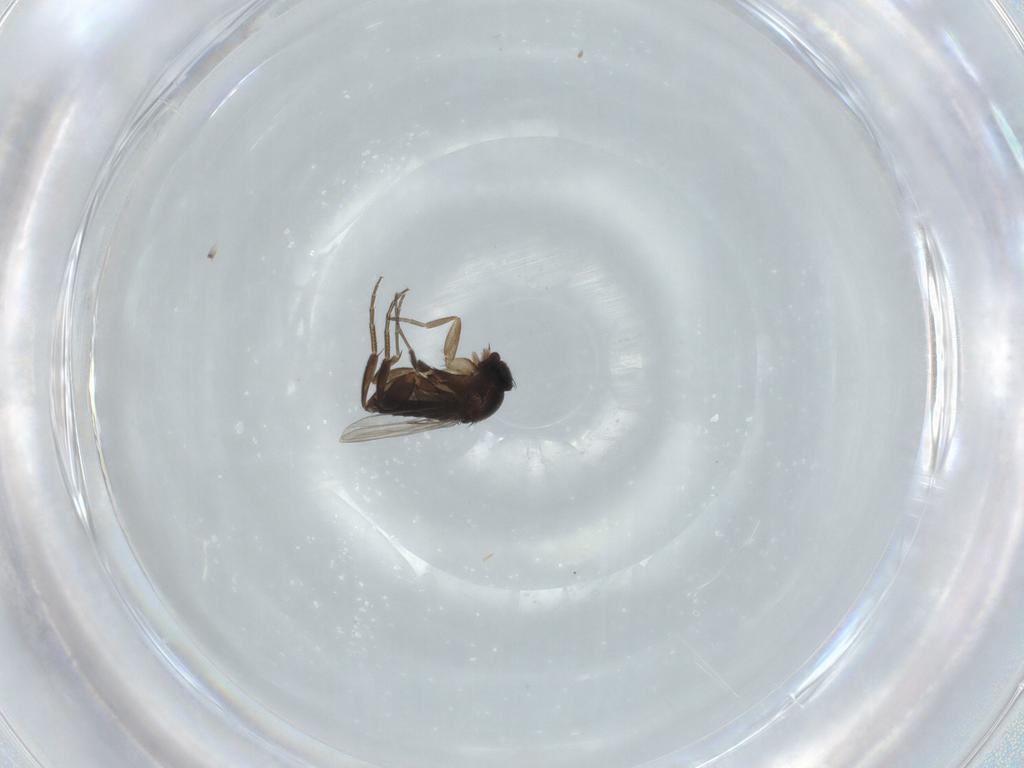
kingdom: Animalia
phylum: Arthropoda
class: Insecta
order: Diptera
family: Phoridae
